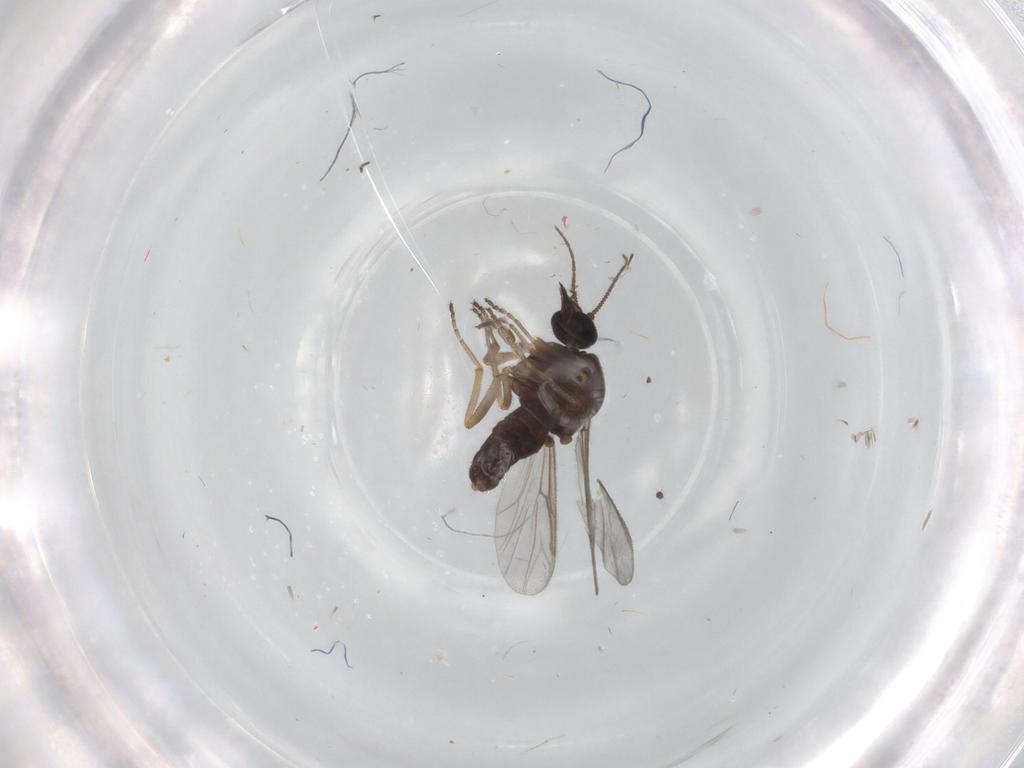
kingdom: Animalia
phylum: Arthropoda
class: Insecta
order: Diptera
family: Ceratopogonidae
